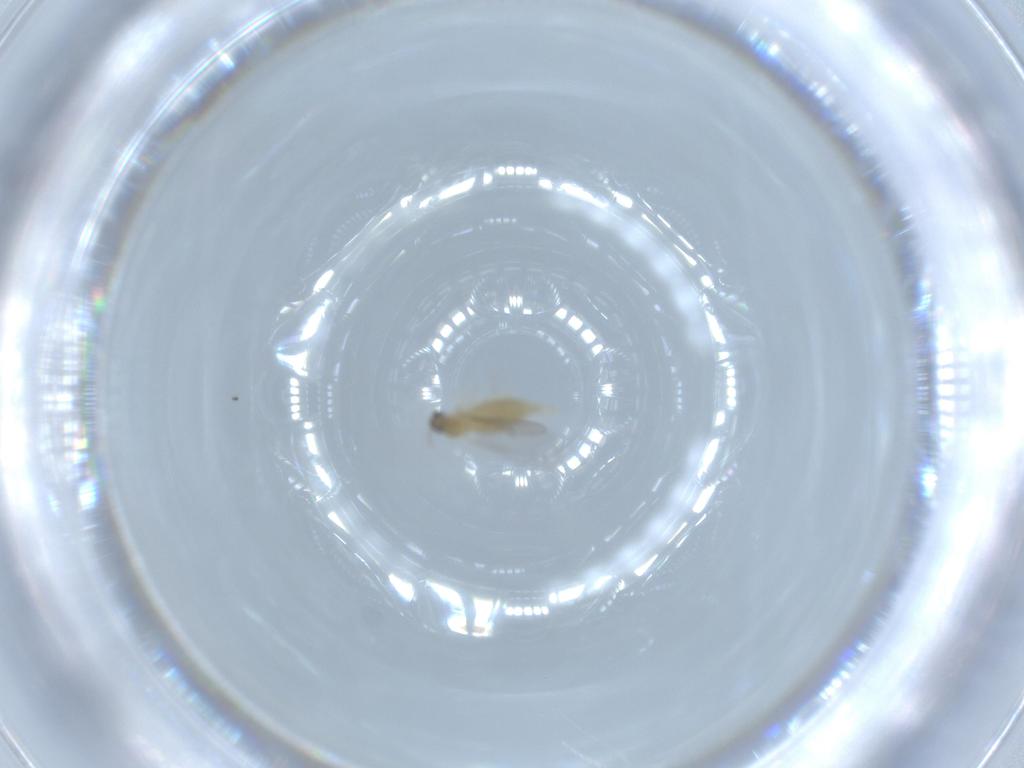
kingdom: Animalia
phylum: Arthropoda
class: Insecta
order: Diptera
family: Cecidomyiidae
